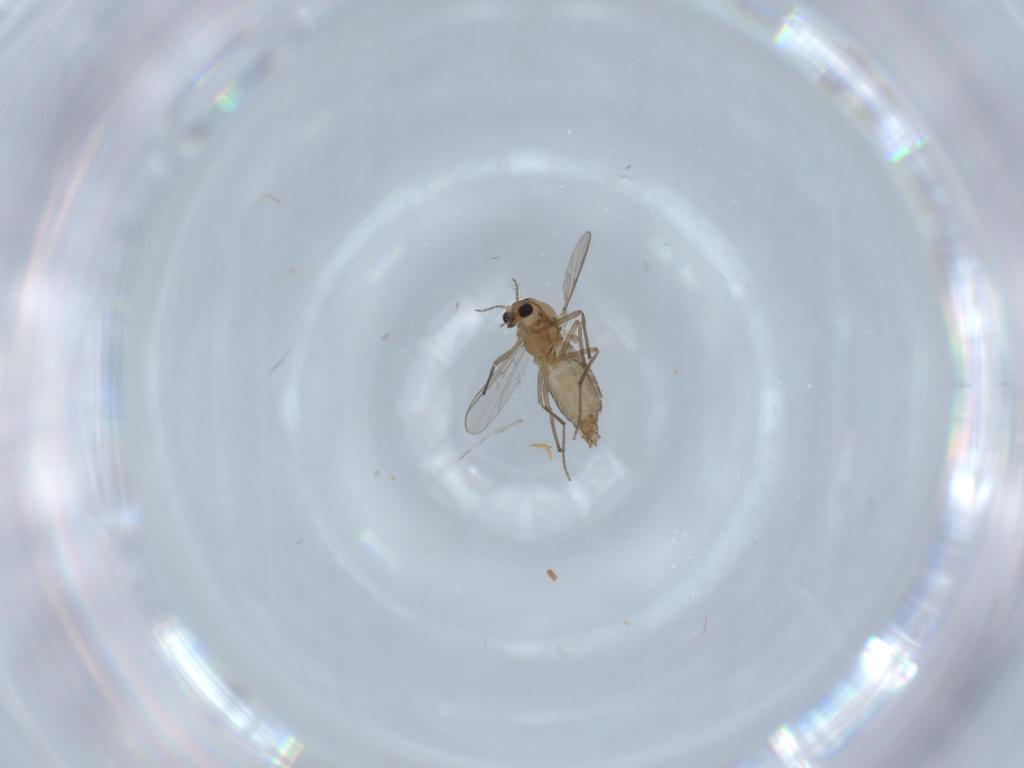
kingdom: Animalia
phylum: Arthropoda
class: Insecta
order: Diptera
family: Chironomidae
